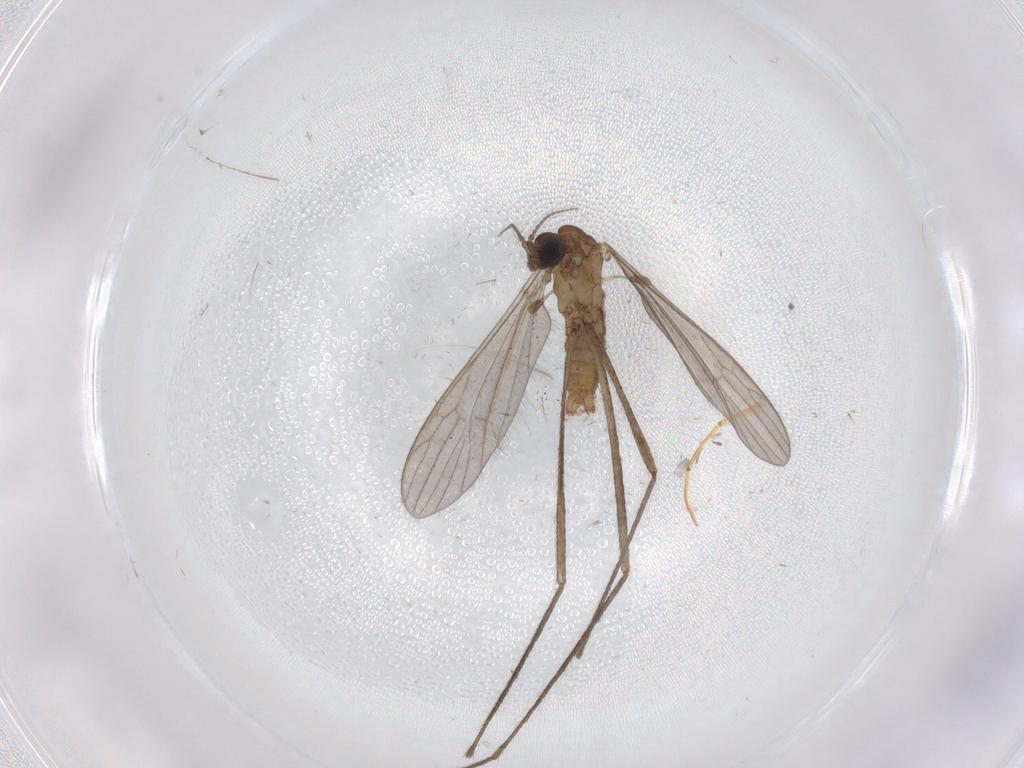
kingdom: Animalia
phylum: Arthropoda
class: Insecta
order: Diptera
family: Limoniidae
